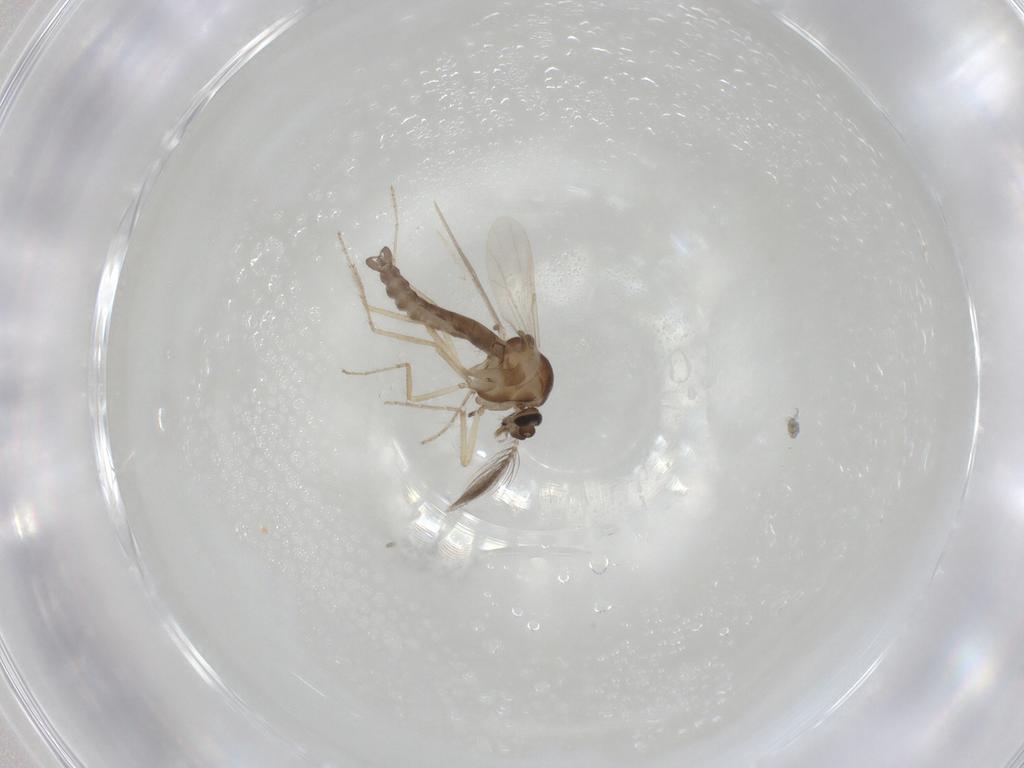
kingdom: Animalia
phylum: Arthropoda
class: Insecta
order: Diptera
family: Ceratopogonidae
